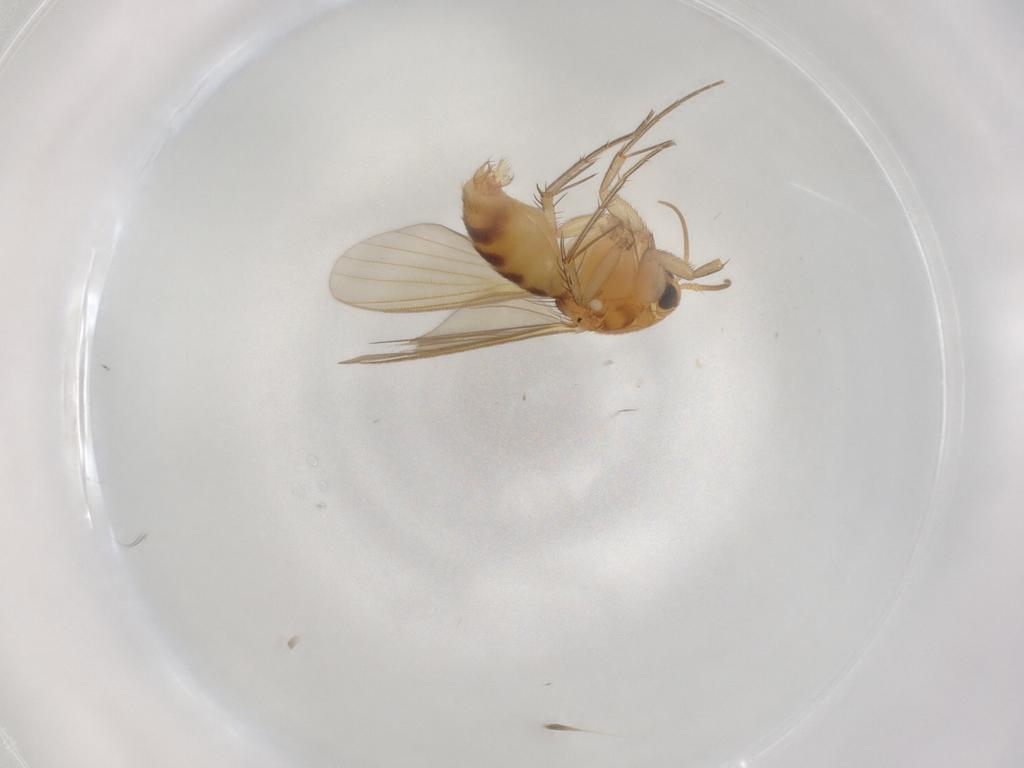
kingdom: Animalia
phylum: Arthropoda
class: Insecta
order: Diptera
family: Mycetophilidae
